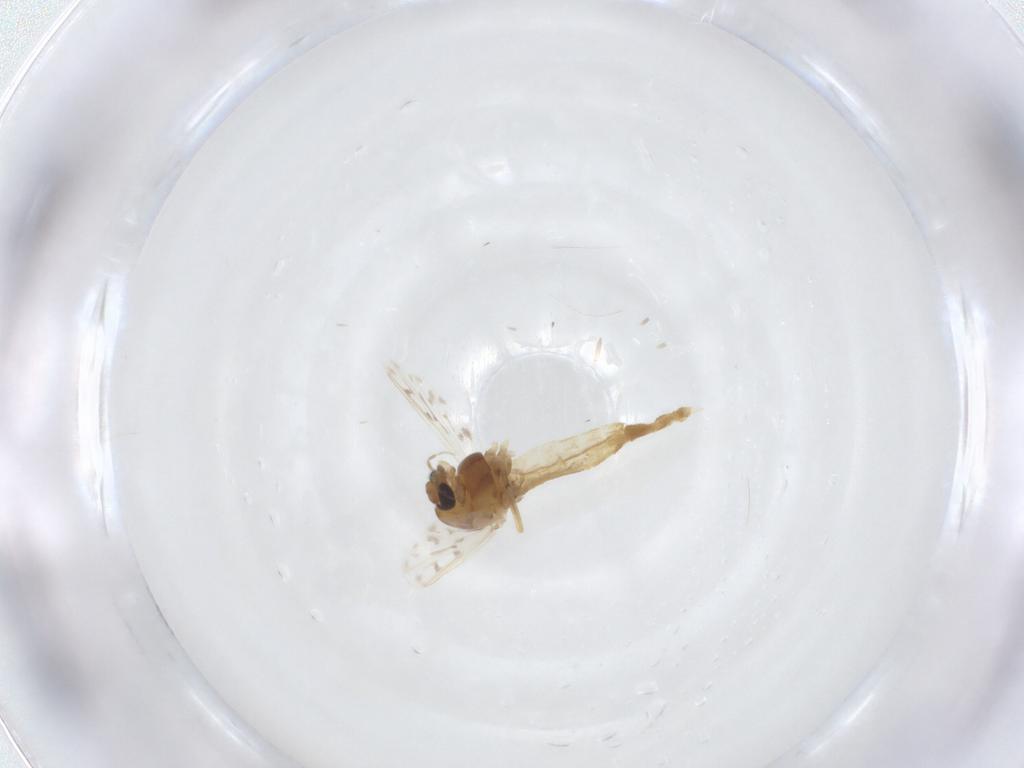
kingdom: Animalia
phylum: Arthropoda
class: Insecta
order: Diptera
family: Chironomidae
